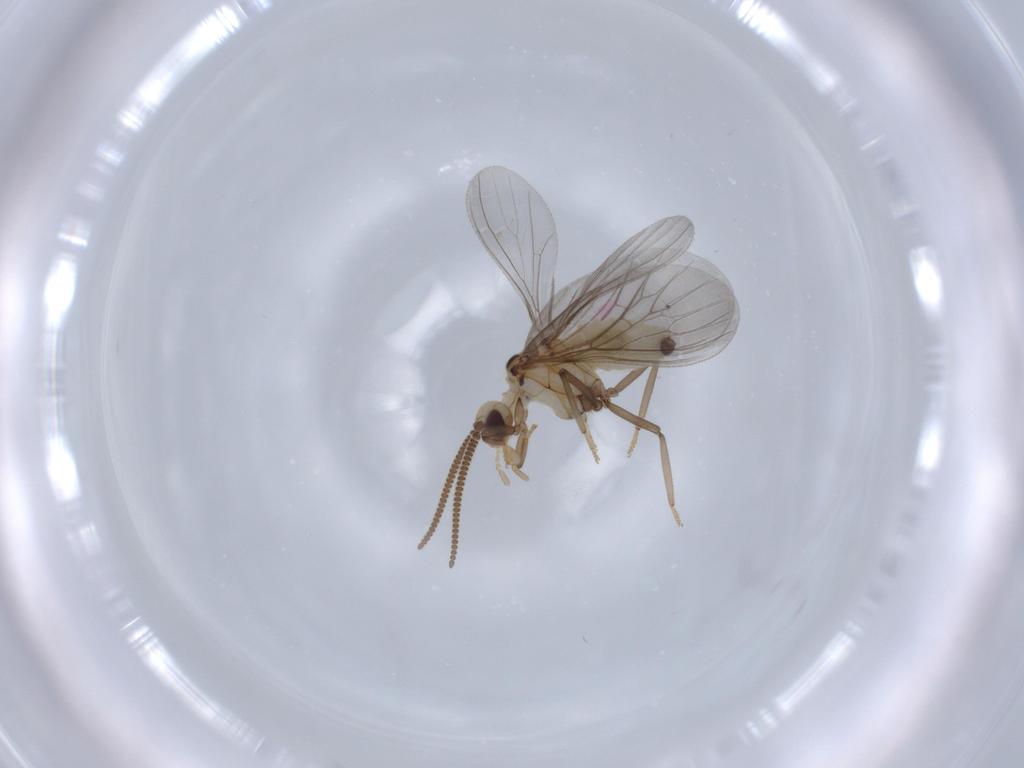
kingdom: Animalia
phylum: Arthropoda
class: Insecta
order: Neuroptera
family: Coniopterygidae
